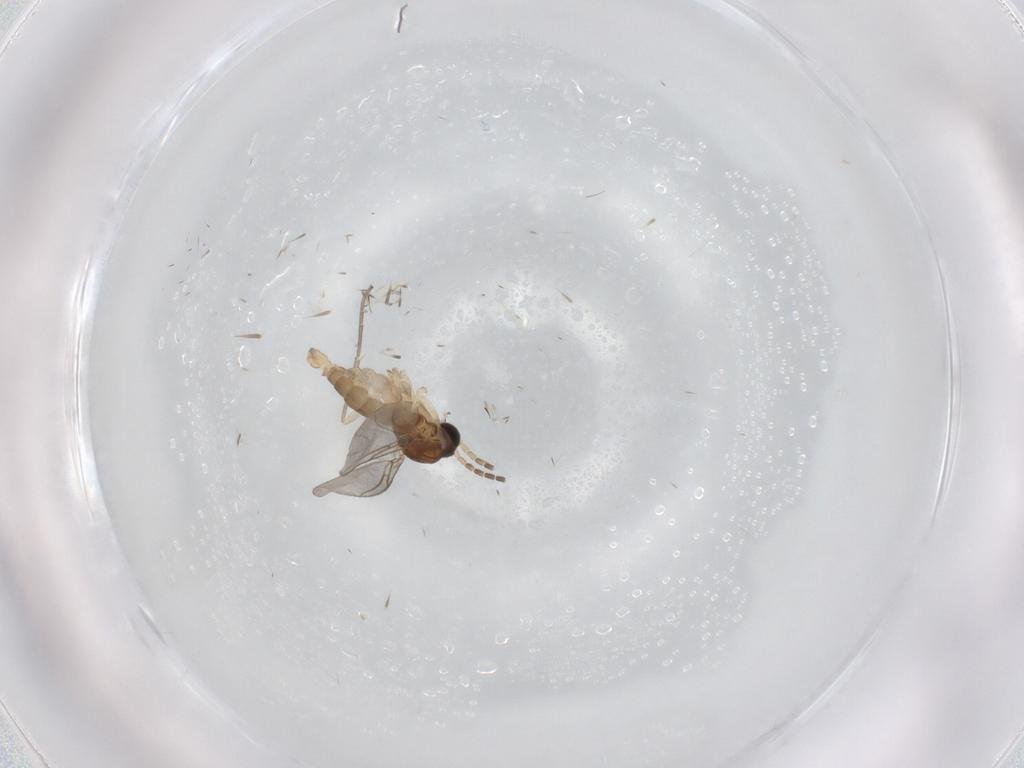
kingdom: Animalia
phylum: Arthropoda
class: Insecta
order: Diptera
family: Sciaridae
